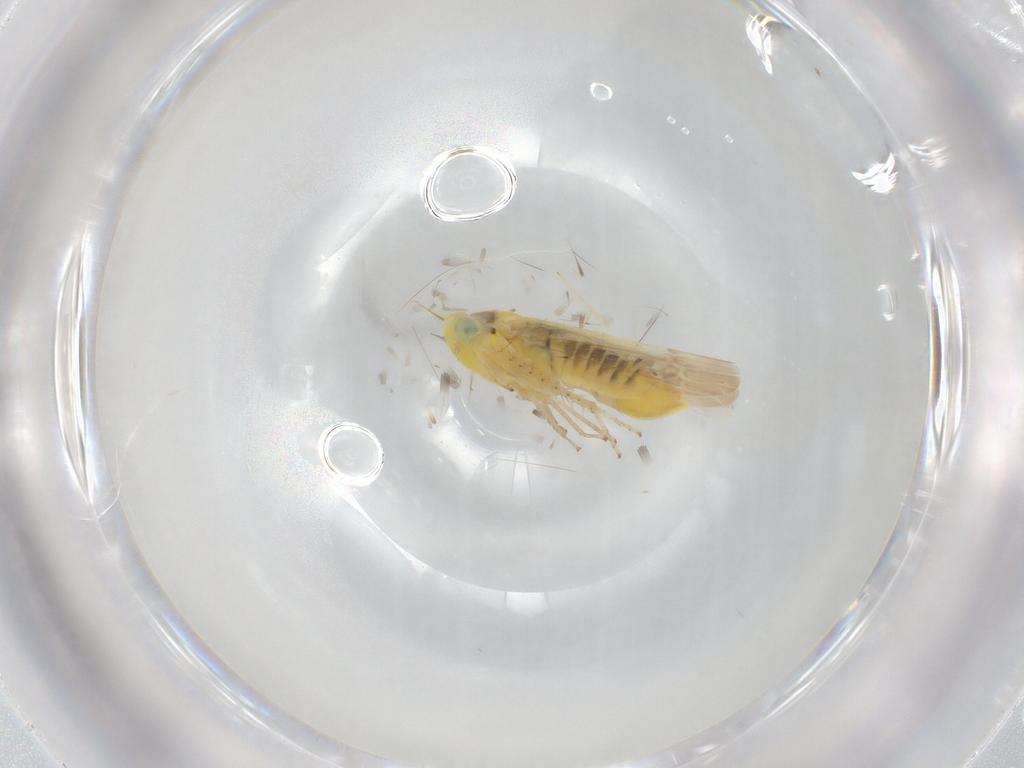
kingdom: Animalia
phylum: Arthropoda
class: Insecta
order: Hemiptera
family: Cicadellidae
